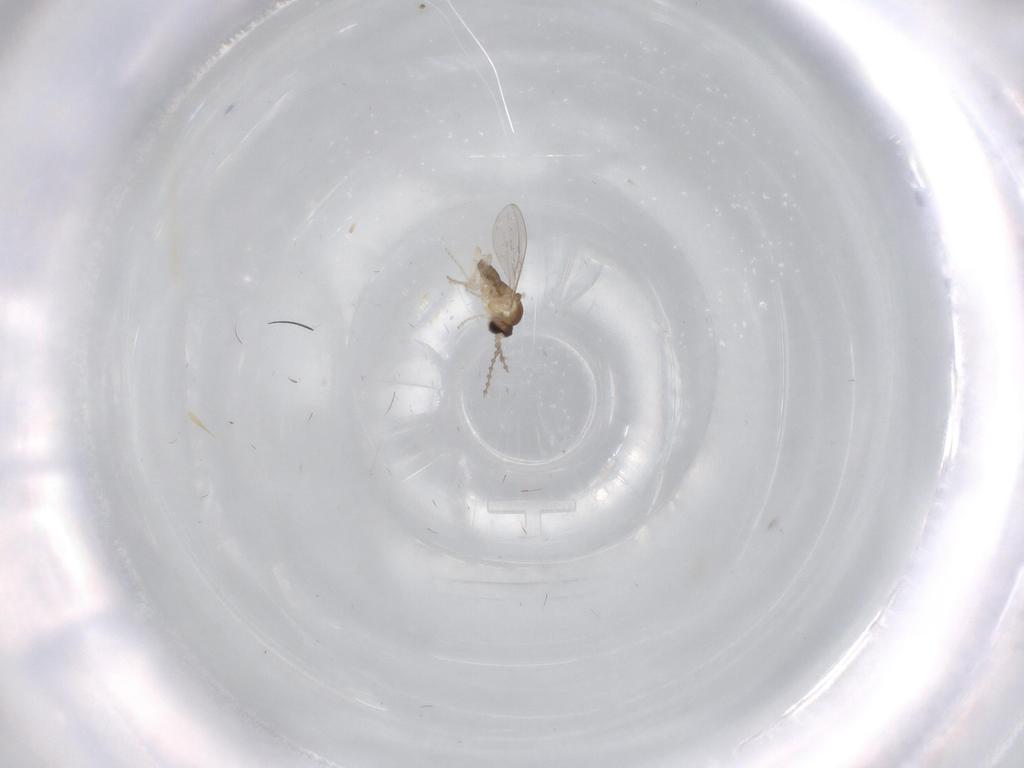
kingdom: Animalia
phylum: Arthropoda
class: Insecta
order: Diptera
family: Cecidomyiidae
